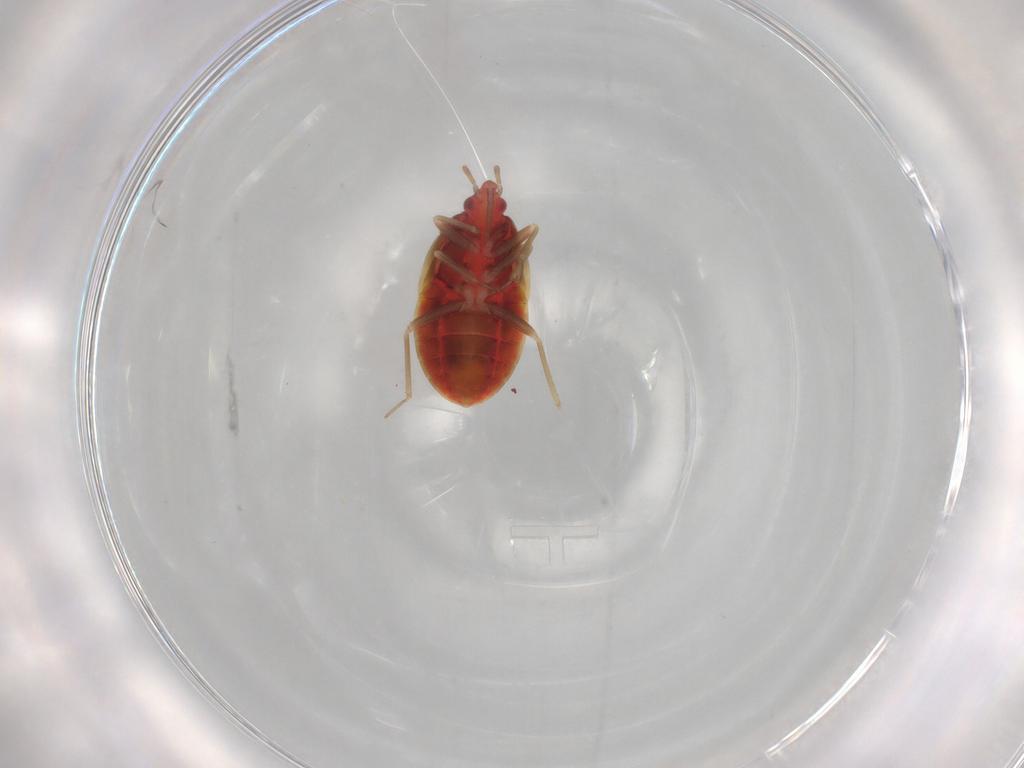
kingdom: Animalia
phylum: Arthropoda
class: Insecta
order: Hemiptera
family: Anthocoridae
